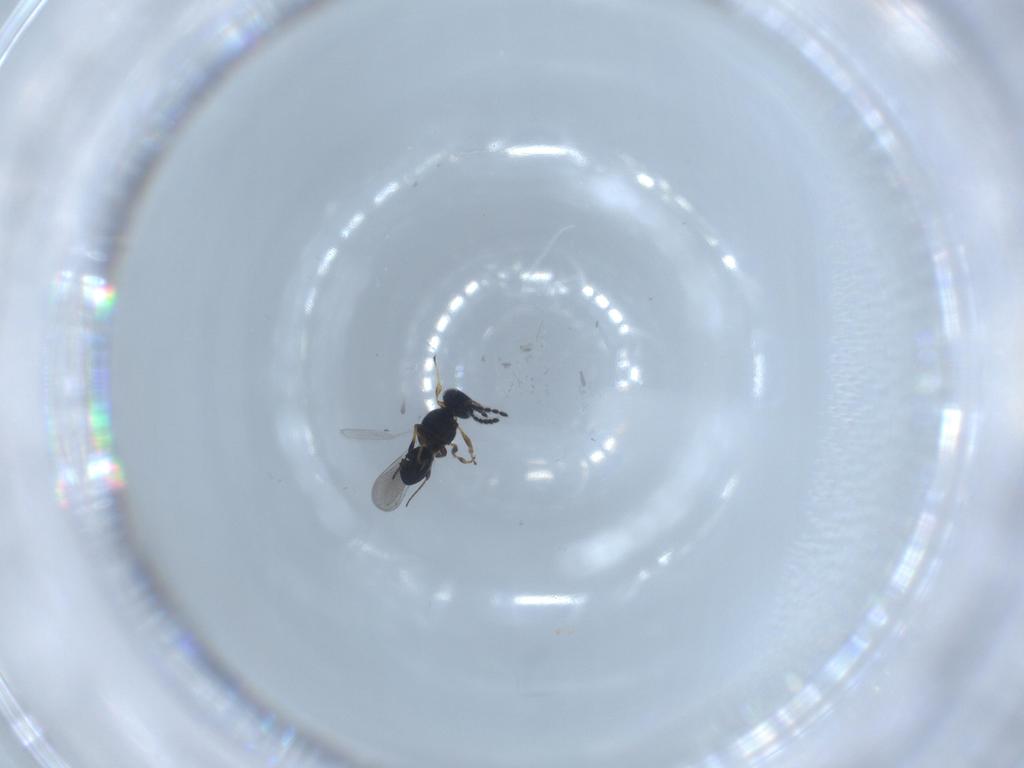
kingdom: Animalia
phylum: Arthropoda
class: Insecta
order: Hymenoptera
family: Platygastridae
